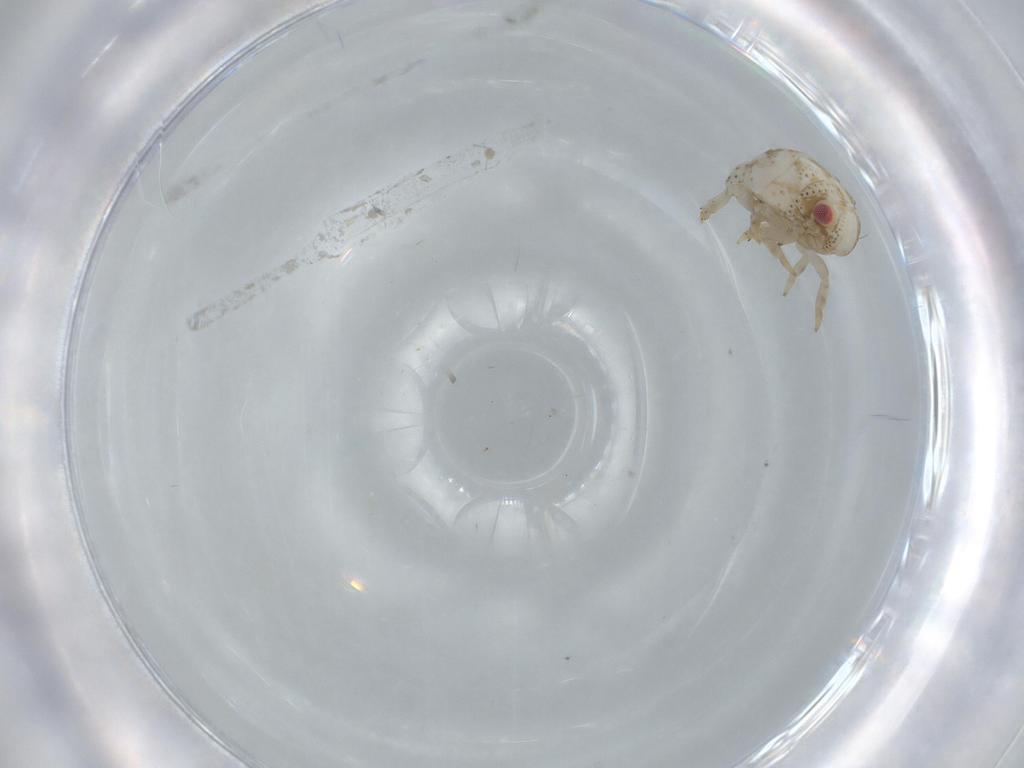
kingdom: Animalia
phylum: Arthropoda
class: Insecta
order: Hemiptera
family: Acanaloniidae
